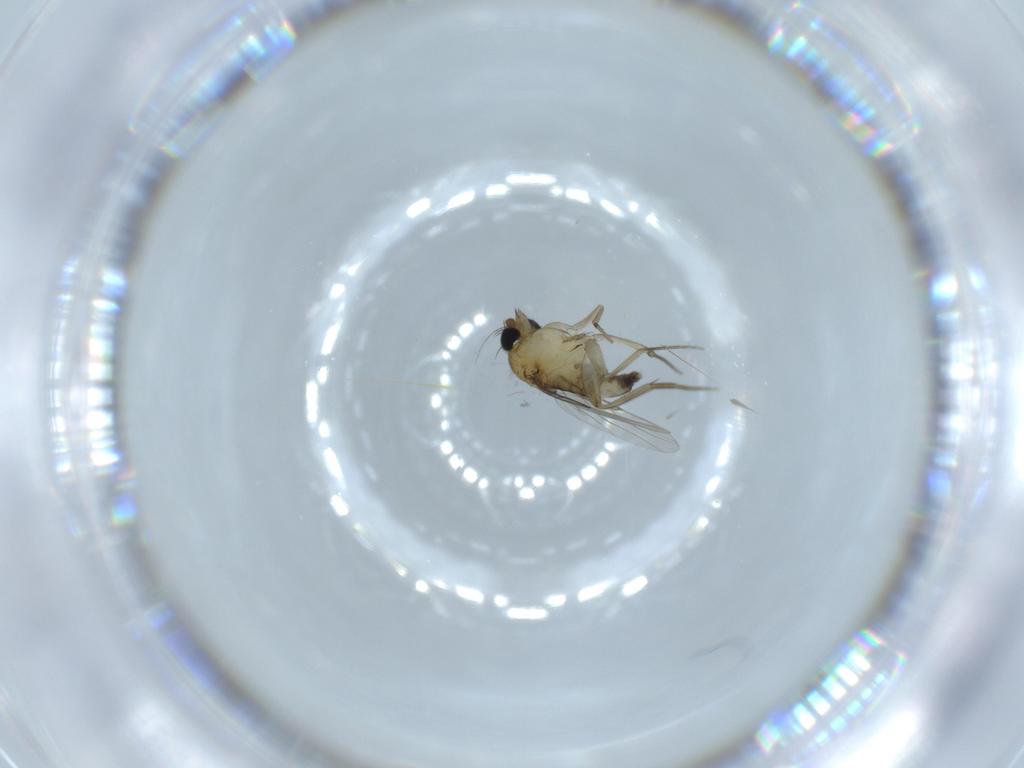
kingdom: Animalia
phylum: Arthropoda
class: Insecta
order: Diptera
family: Phoridae
